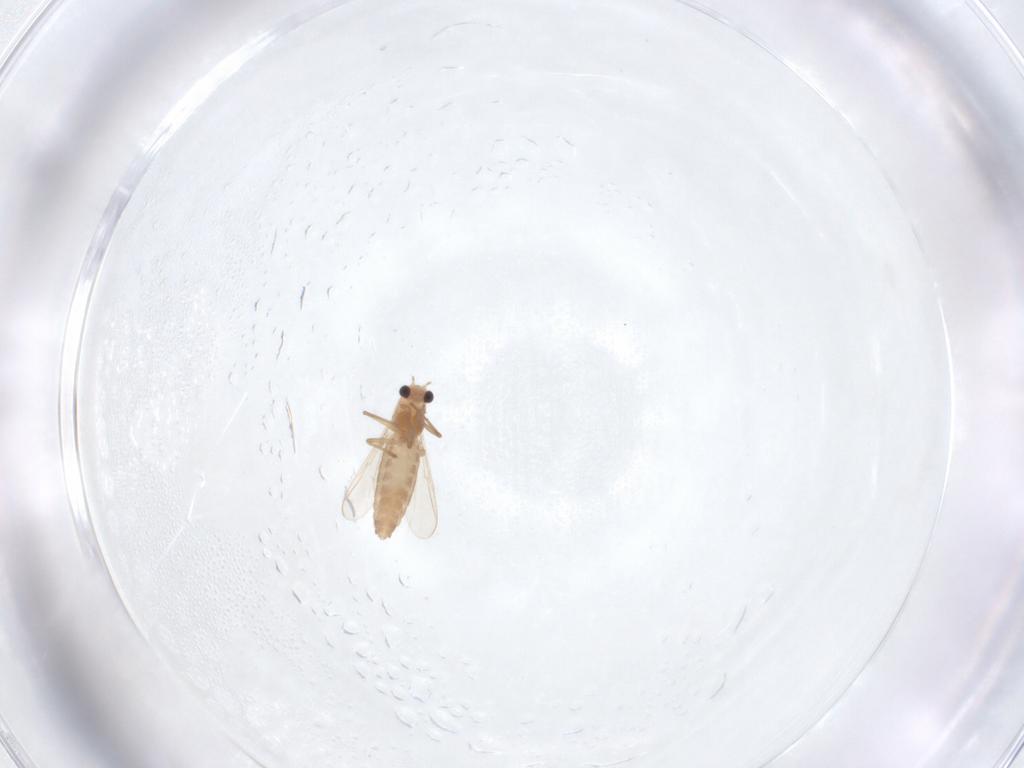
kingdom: Animalia
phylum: Arthropoda
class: Insecta
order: Diptera
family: Chironomidae
